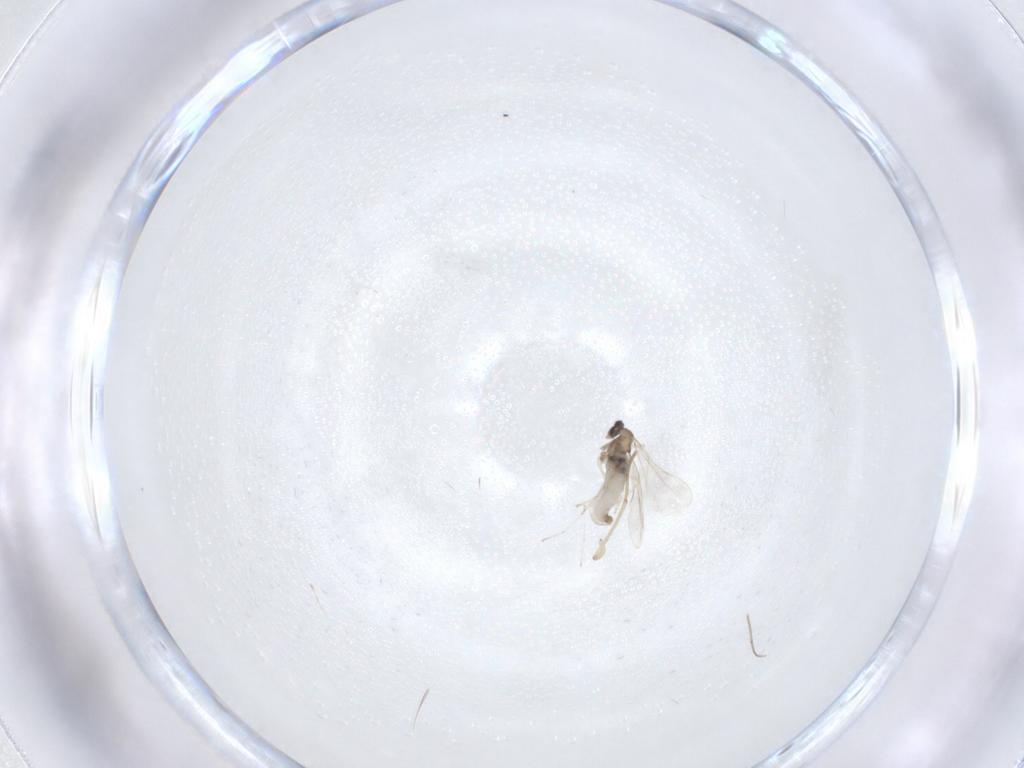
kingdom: Animalia
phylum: Arthropoda
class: Insecta
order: Diptera
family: Cecidomyiidae
